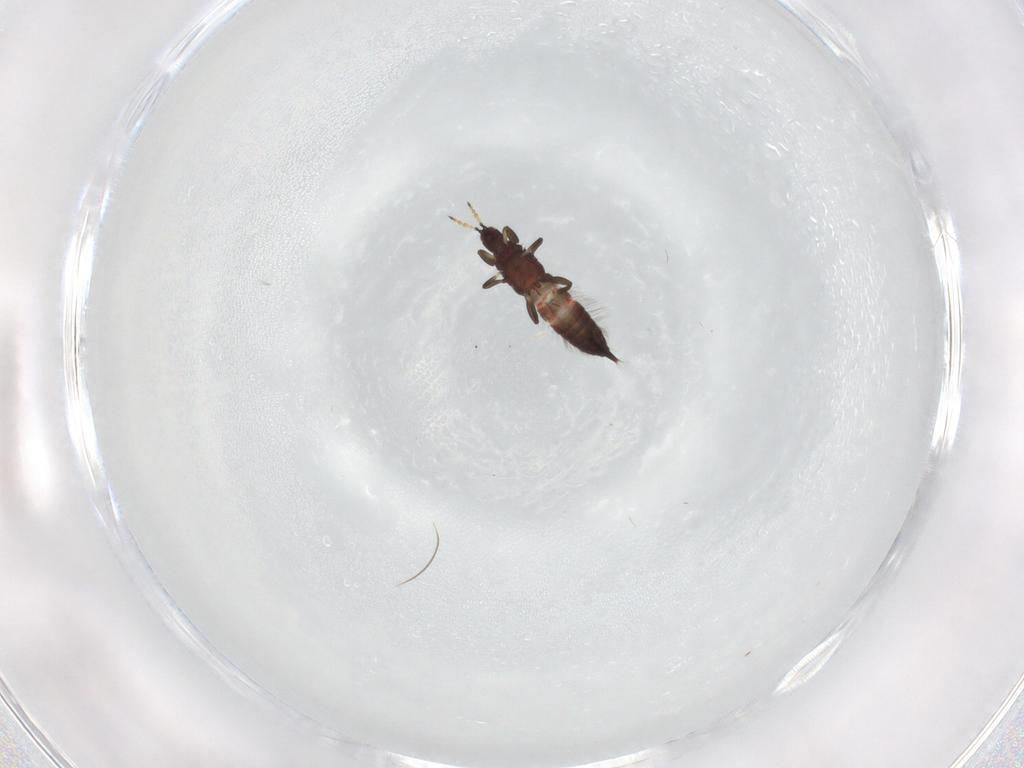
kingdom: Animalia
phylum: Arthropoda
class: Insecta
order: Thysanoptera
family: Phlaeothripidae
